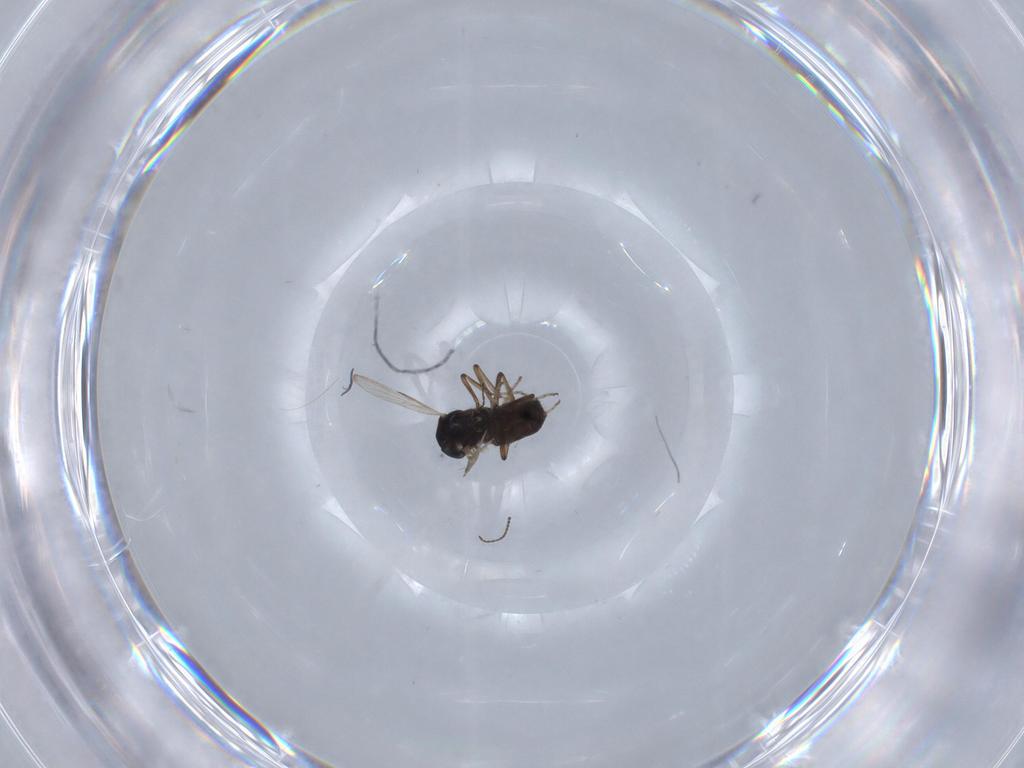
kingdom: Animalia
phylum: Arthropoda
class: Insecta
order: Diptera
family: Ceratopogonidae
